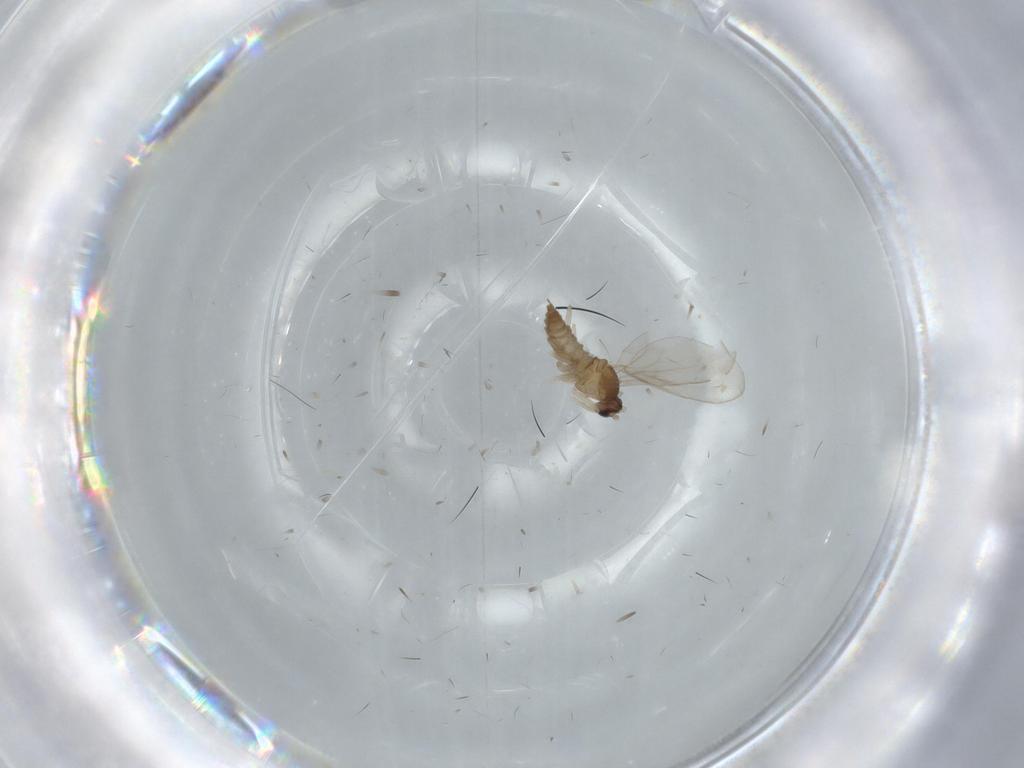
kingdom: Animalia
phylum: Arthropoda
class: Insecta
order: Diptera
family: Cecidomyiidae
